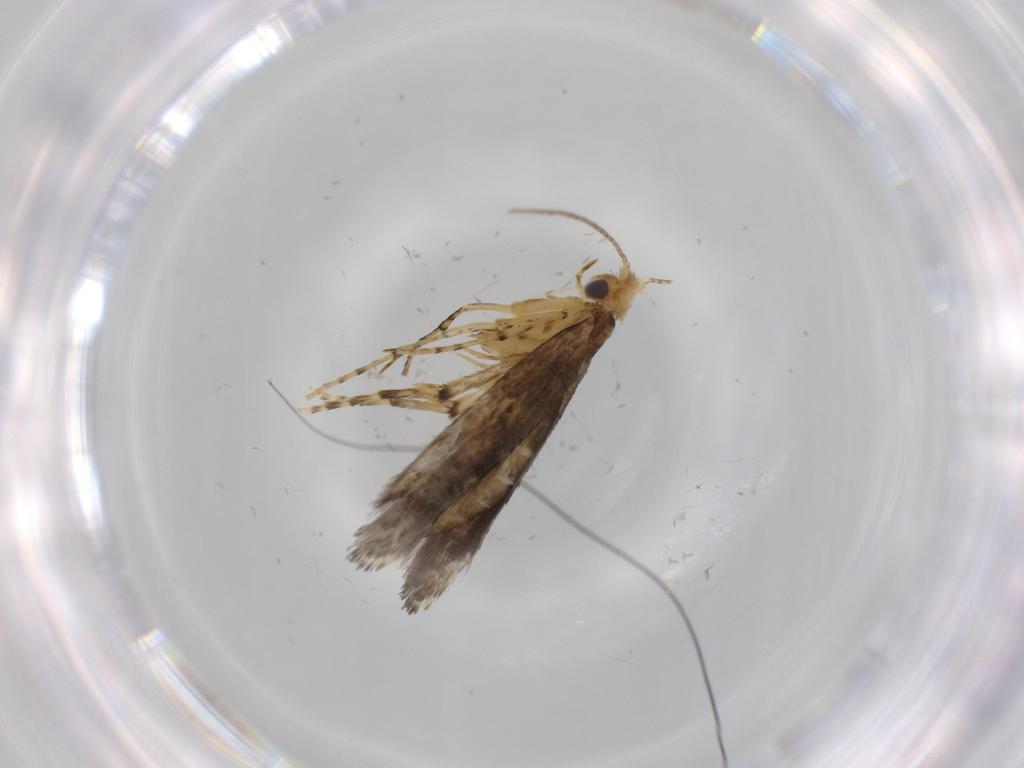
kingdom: Animalia
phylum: Arthropoda
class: Insecta
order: Lepidoptera
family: Argyresthiidae
